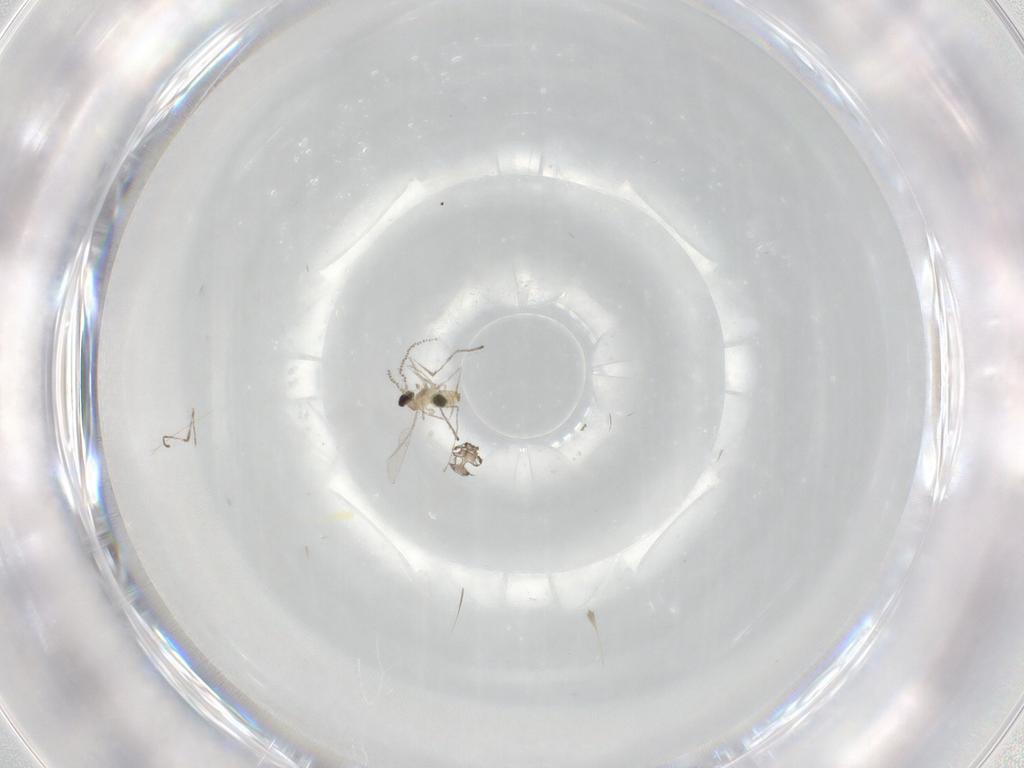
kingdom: Animalia
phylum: Arthropoda
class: Insecta
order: Diptera
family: Cecidomyiidae
